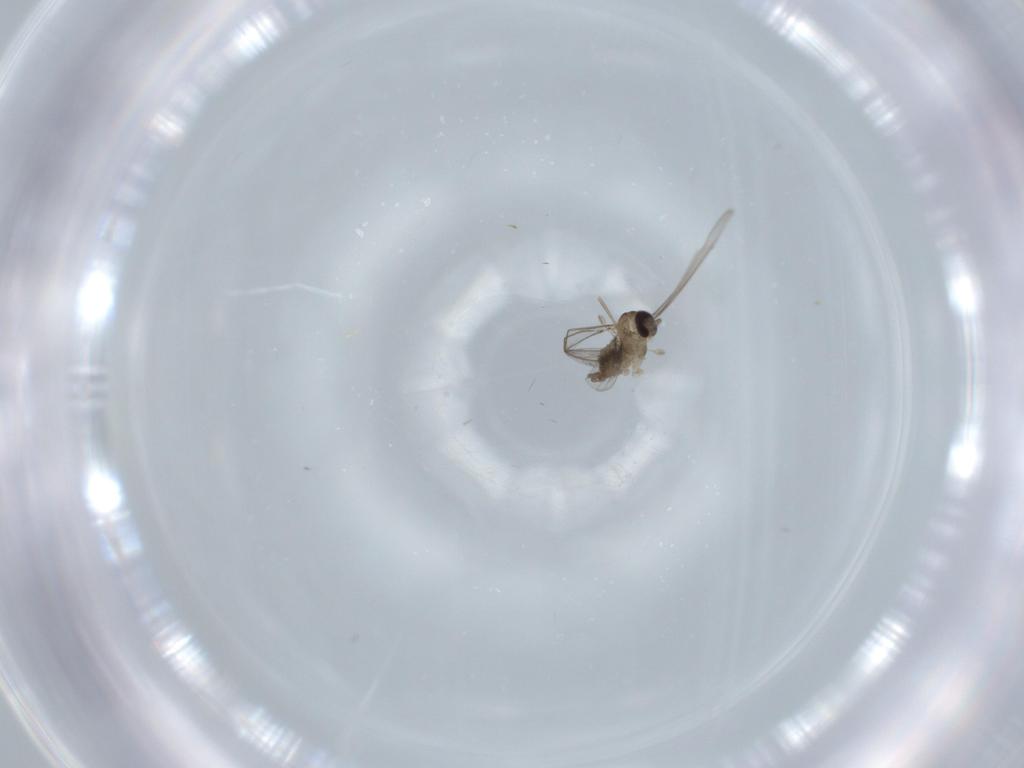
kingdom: Animalia
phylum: Arthropoda
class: Insecta
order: Diptera
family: Cecidomyiidae
